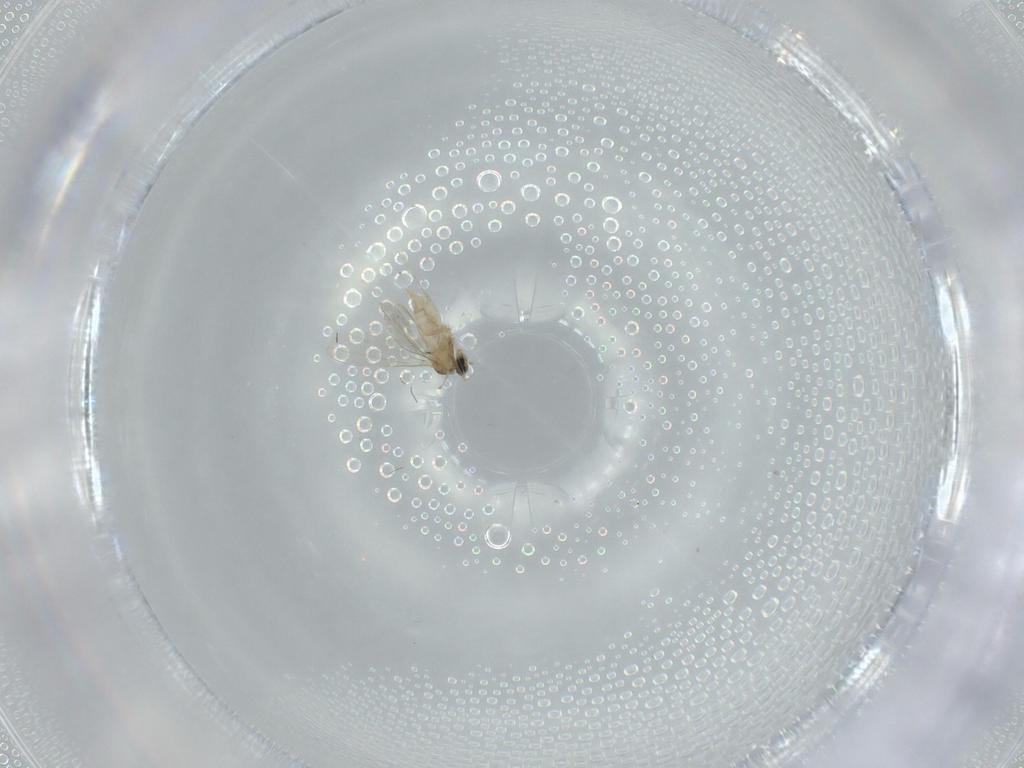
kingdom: Animalia
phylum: Arthropoda
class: Insecta
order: Diptera
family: Cecidomyiidae
